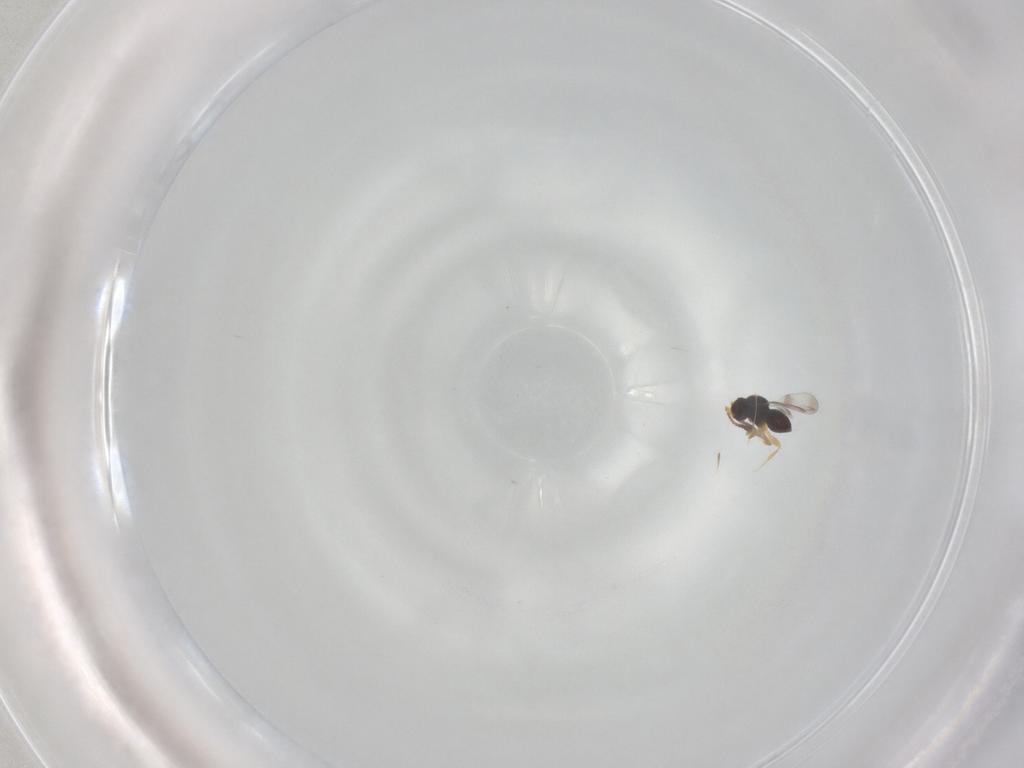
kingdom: Animalia
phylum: Arthropoda
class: Insecta
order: Hymenoptera
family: Platygastridae
